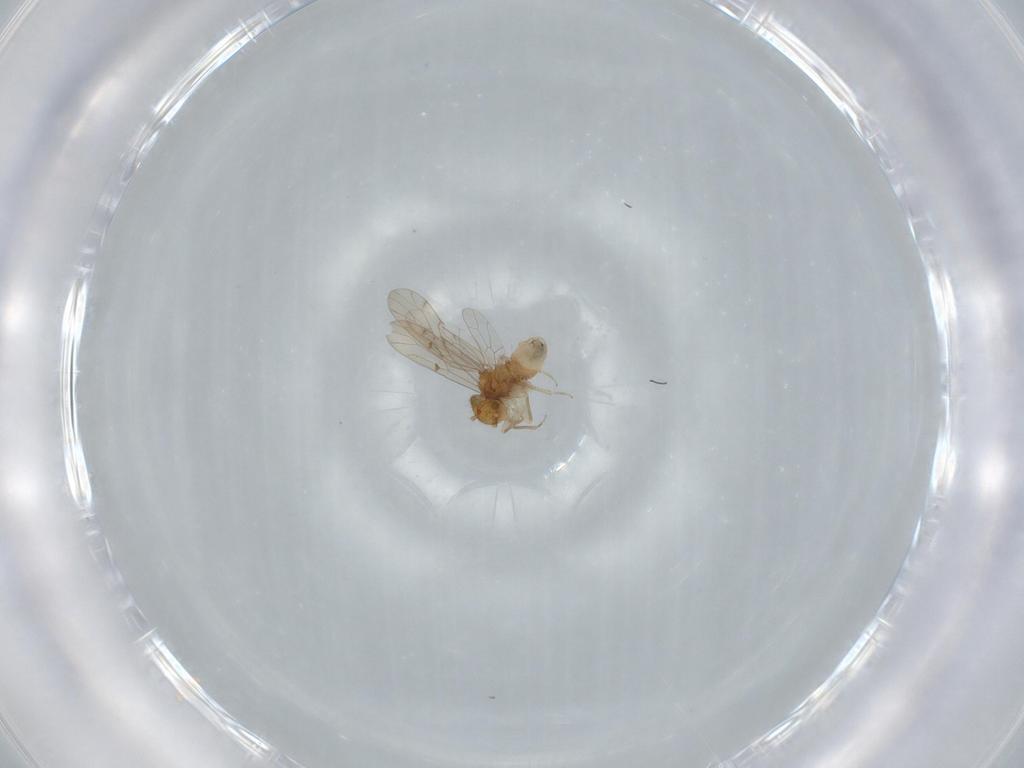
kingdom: Animalia
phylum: Arthropoda
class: Insecta
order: Psocodea
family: Ectopsocidae
